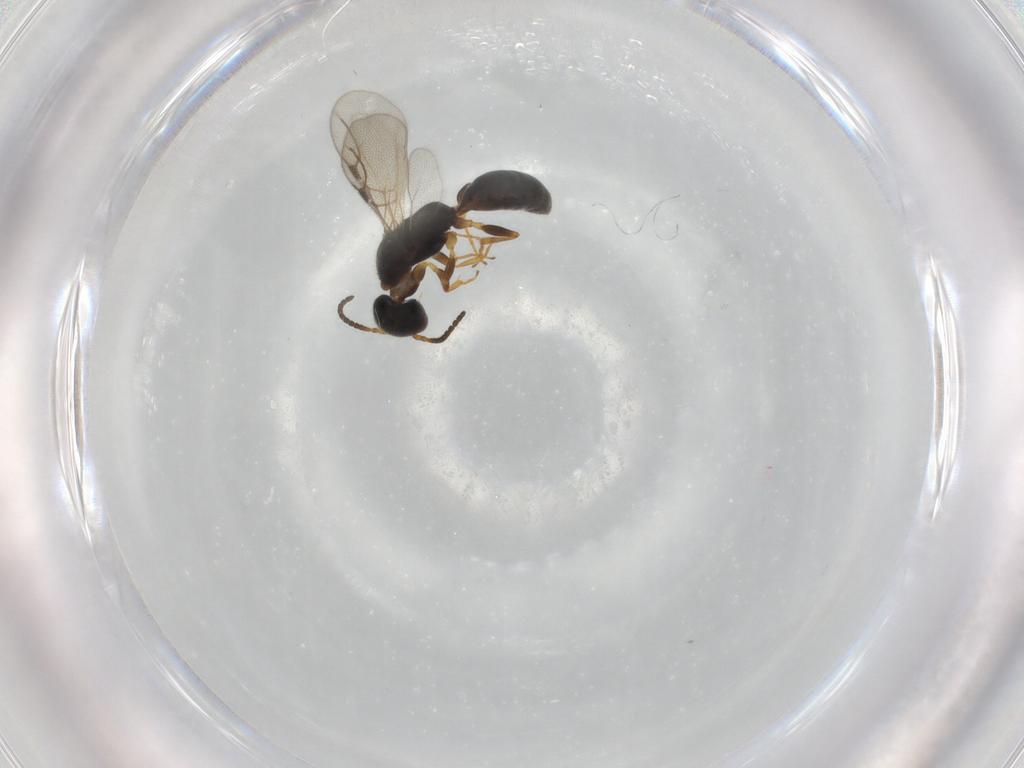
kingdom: Animalia
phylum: Arthropoda
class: Insecta
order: Hymenoptera
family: Bethylidae
